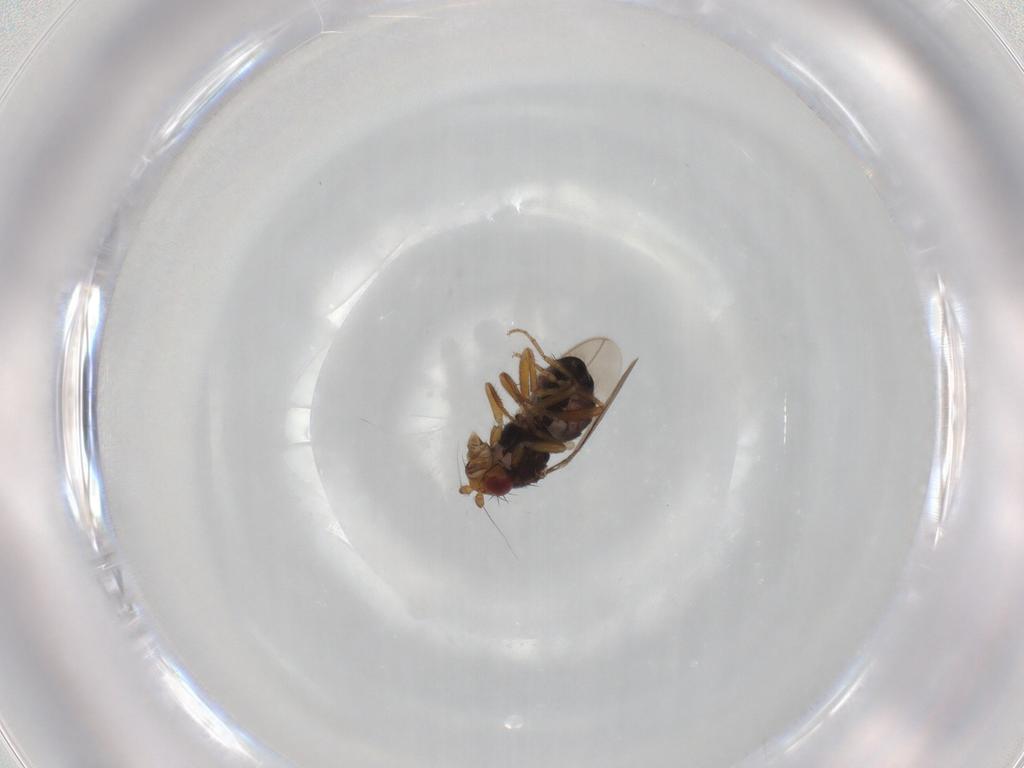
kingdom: Animalia
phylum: Arthropoda
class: Insecta
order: Diptera
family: Sphaeroceridae
